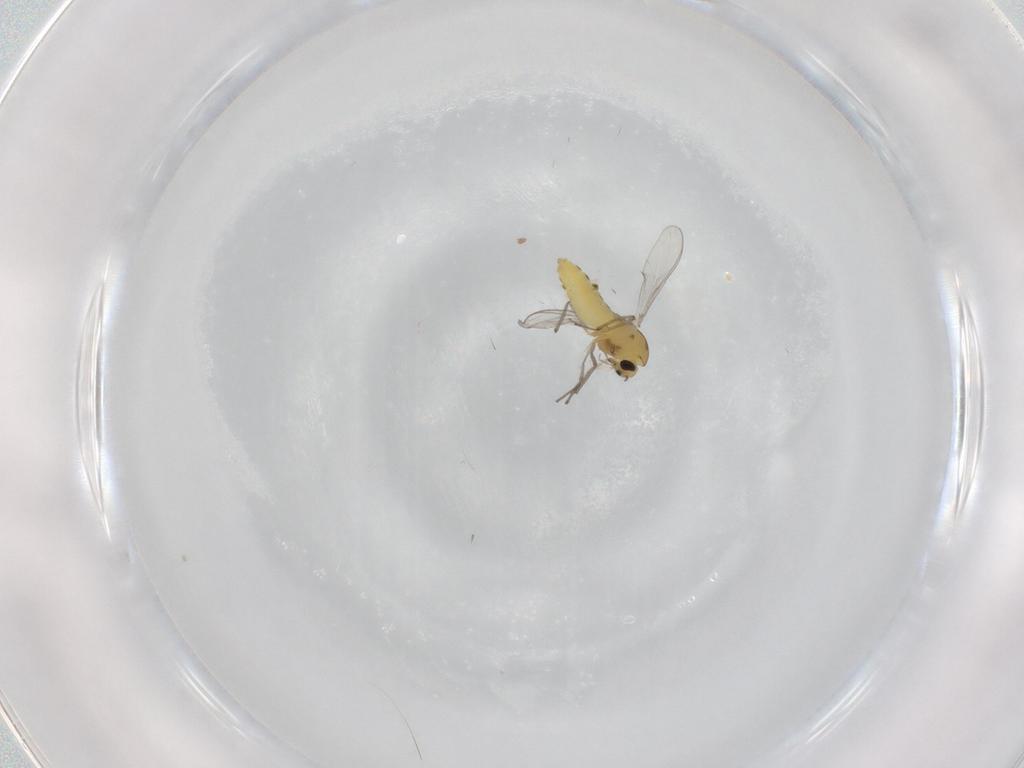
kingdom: Animalia
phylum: Arthropoda
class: Insecta
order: Diptera
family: Chironomidae
